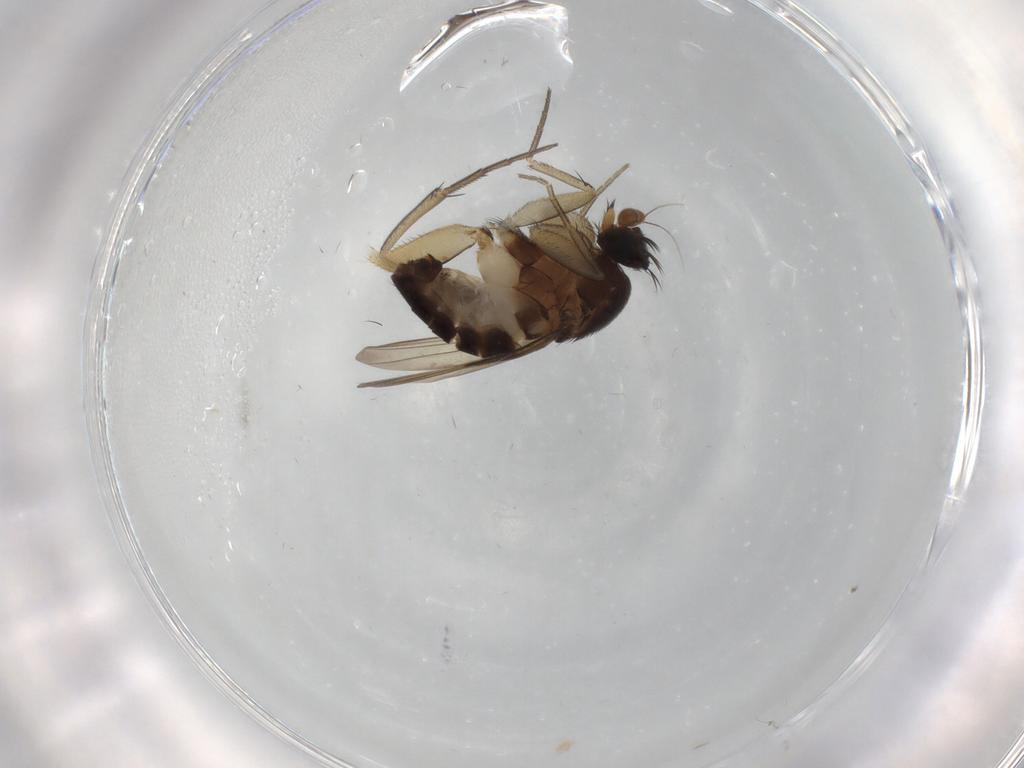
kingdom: Animalia
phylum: Arthropoda
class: Insecta
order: Diptera
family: Phoridae
